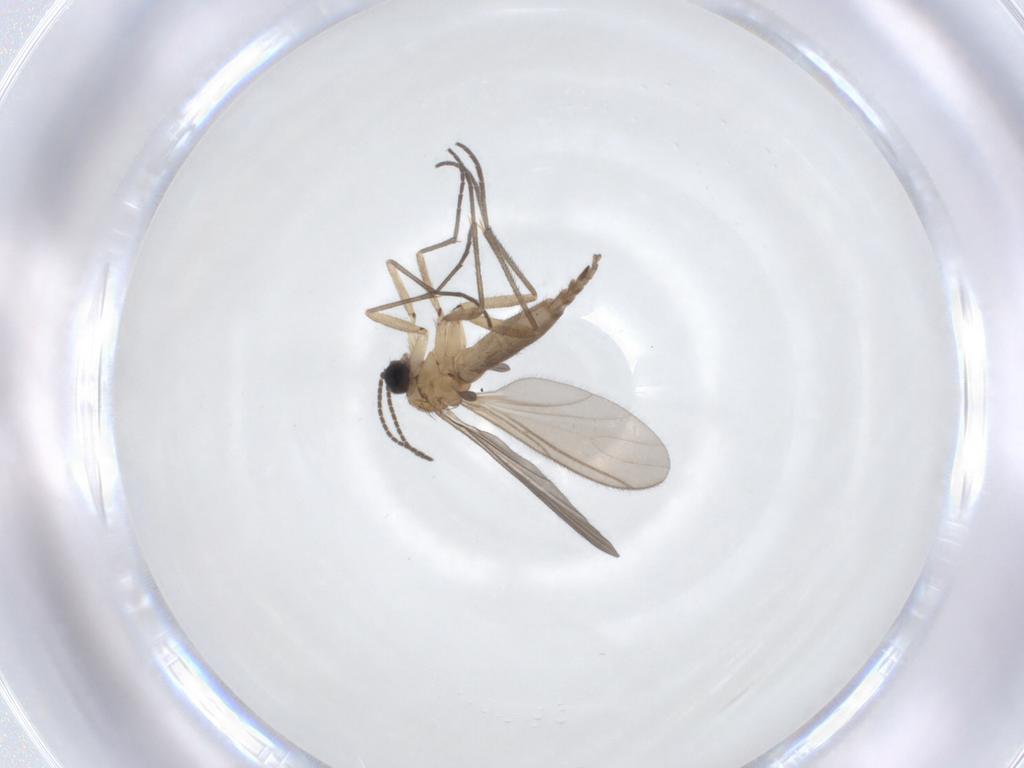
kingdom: Animalia
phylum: Arthropoda
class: Insecta
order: Diptera
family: Sciaridae
